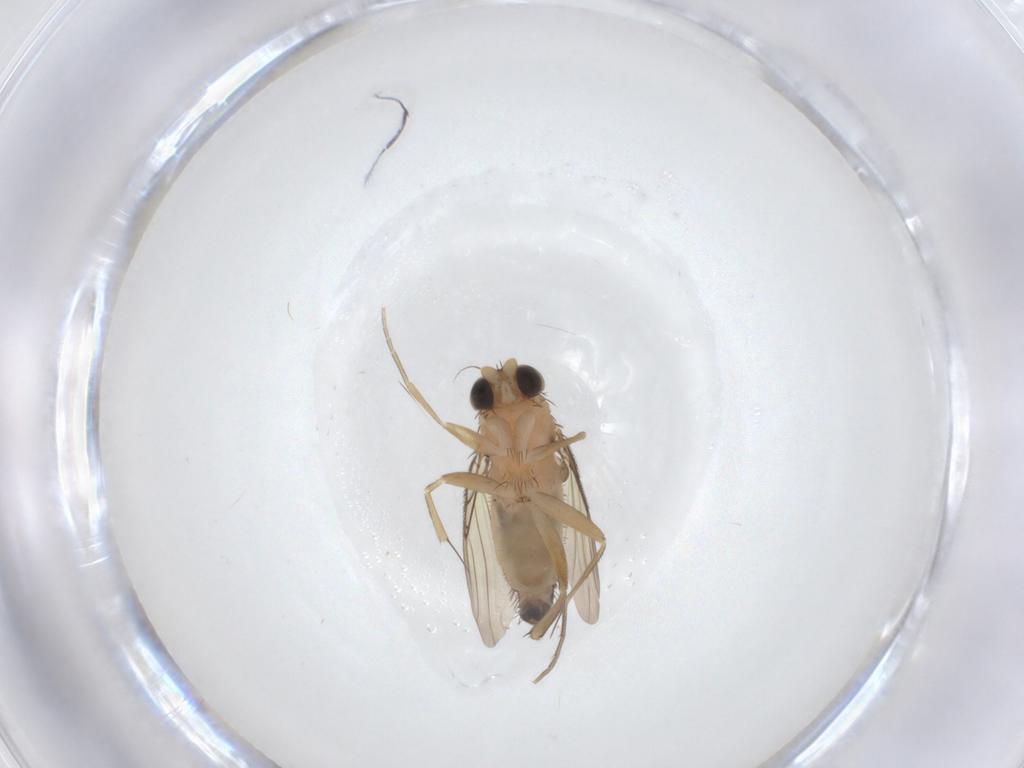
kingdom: Animalia
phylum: Arthropoda
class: Insecta
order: Diptera
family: Phoridae
